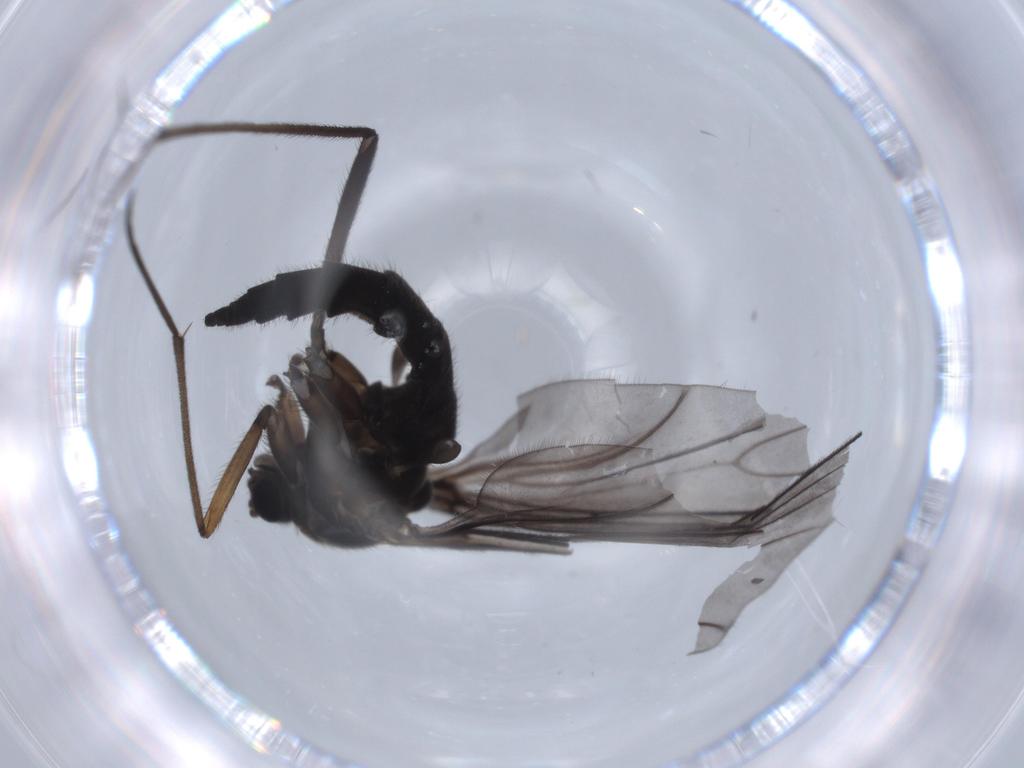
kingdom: Animalia
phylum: Arthropoda
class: Insecta
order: Diptera
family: Sciaridae
